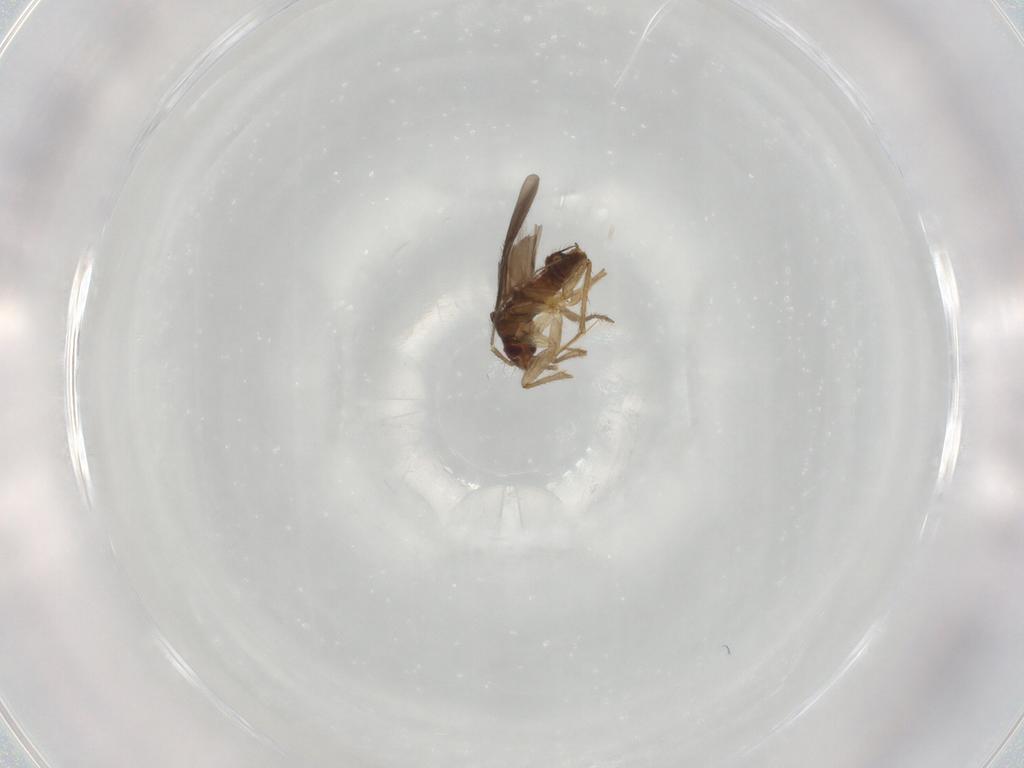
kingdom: Animalia
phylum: Arthropoda
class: Insecta
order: Hemiptera
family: Ceratocombidae
